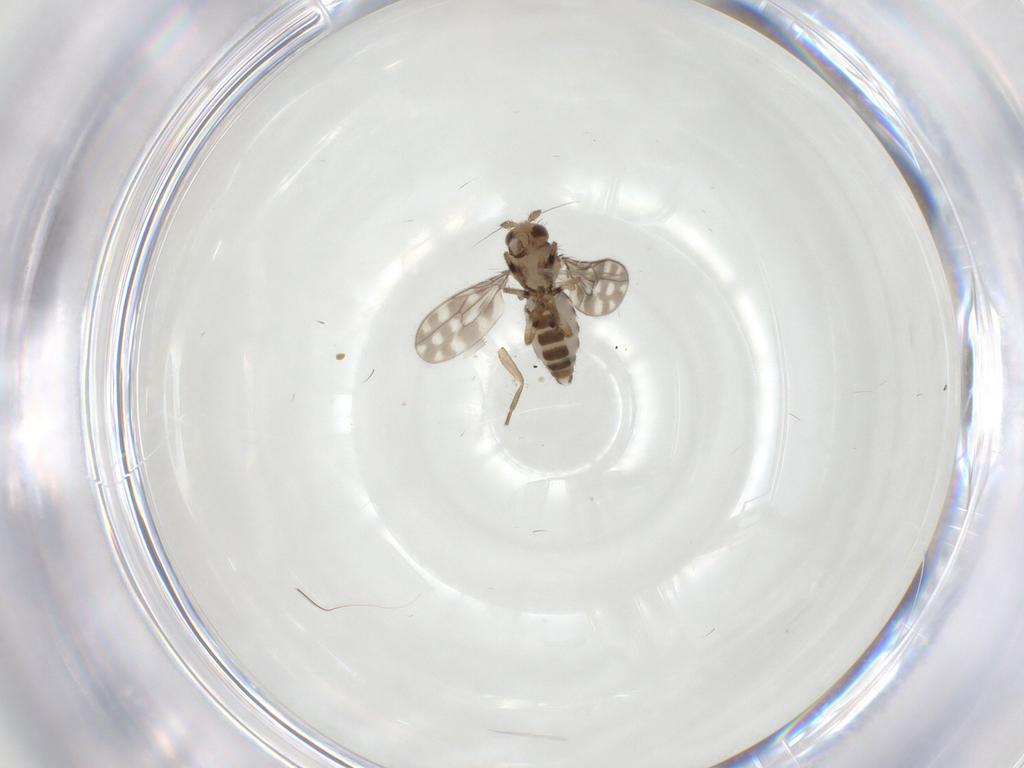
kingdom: Animalia
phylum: Arthropoda
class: Insecta
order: Diptera
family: Sphaeroceridae
